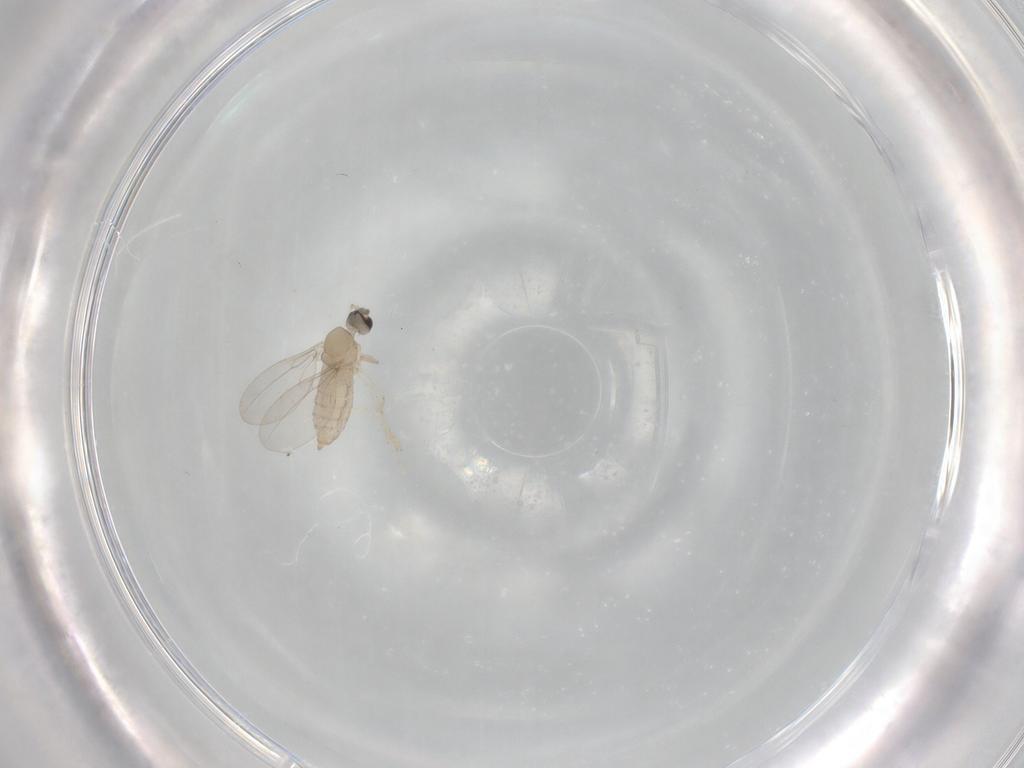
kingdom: Animalia
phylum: Arthropoda
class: Insecta
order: Diptera
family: Cecidomyiidae
